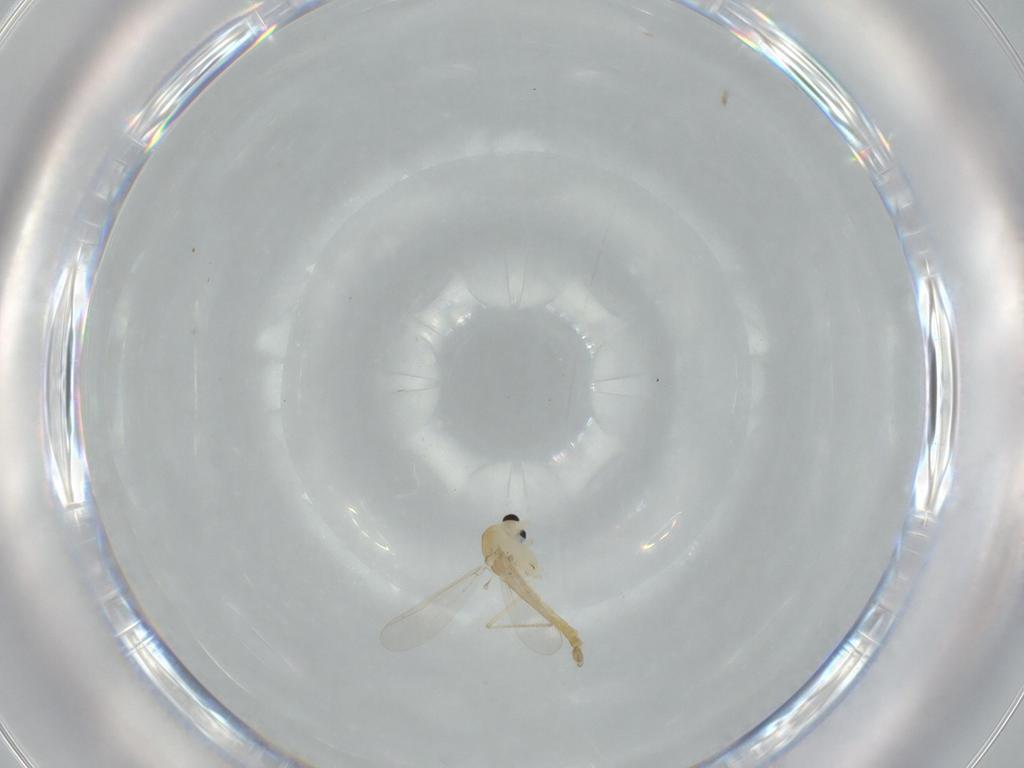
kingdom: Animalia
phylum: Arthropoda
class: Insecta
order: Diptera
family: Chironomidae
